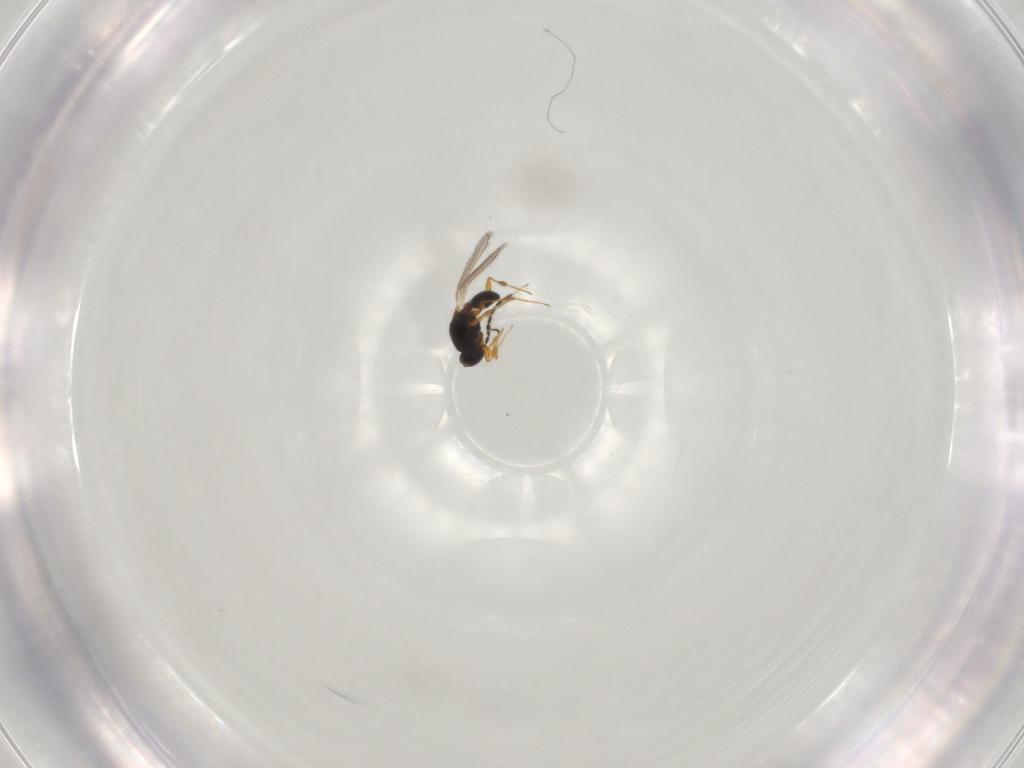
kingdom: Animalia
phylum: Arthropoda
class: Insecta
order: Hymenoptera
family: Platygastridae
